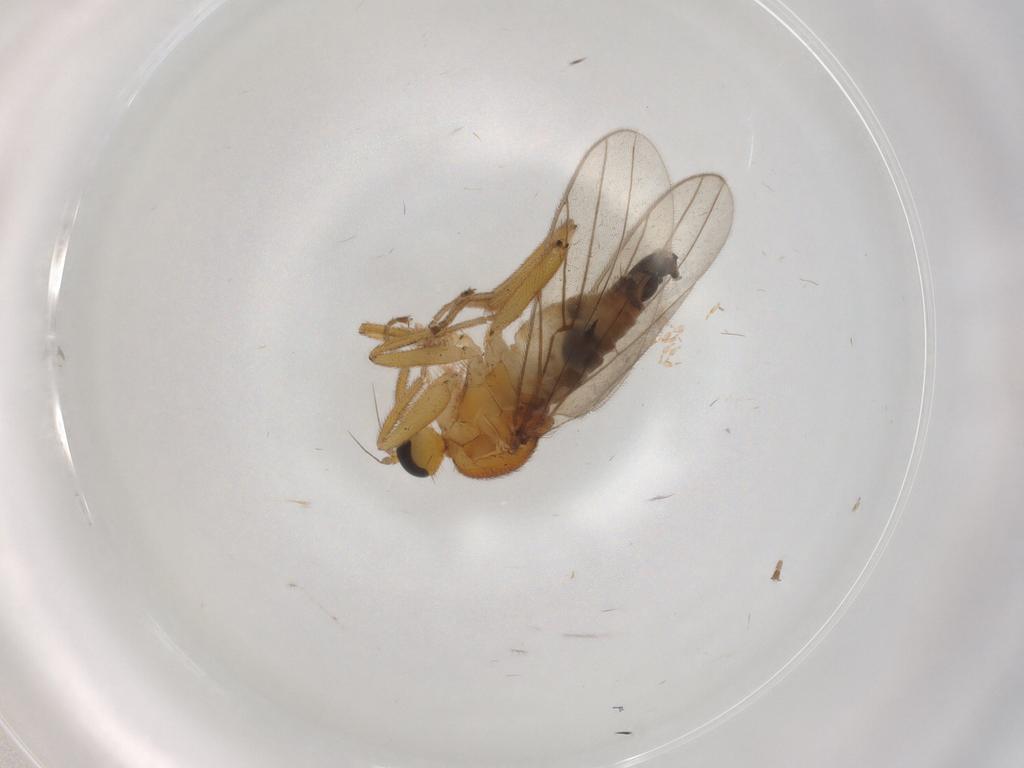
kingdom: Animalia
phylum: Arthropoda
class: Insecta
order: Diptera
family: Hybotidae
